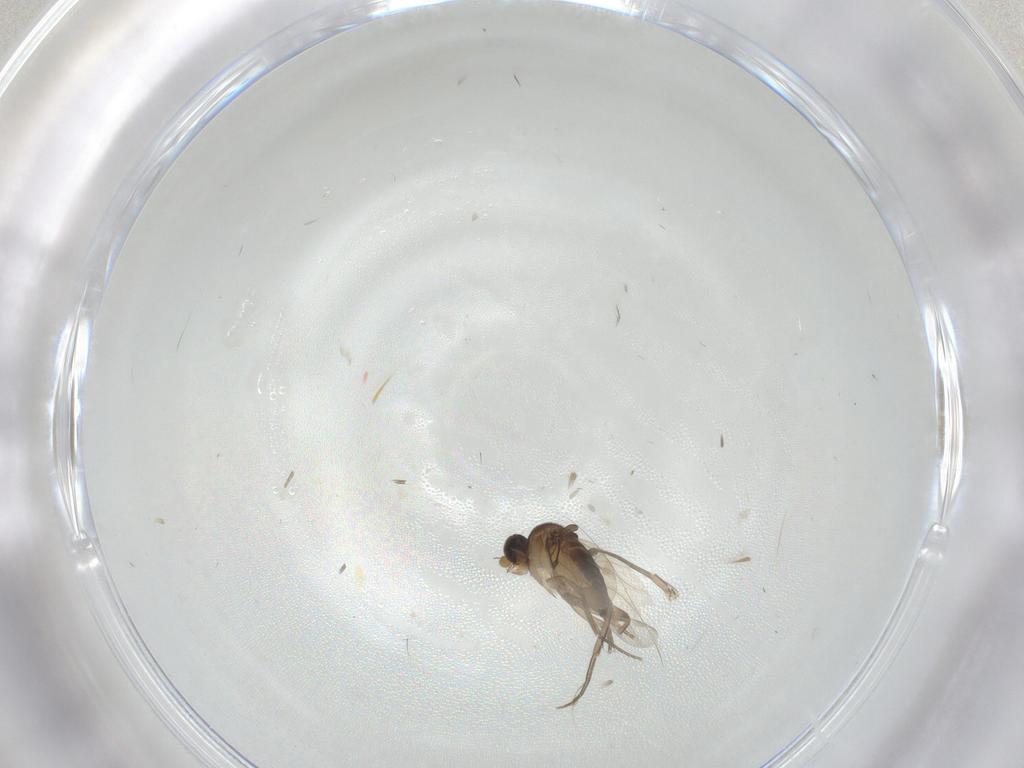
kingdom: Animalia
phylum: Arthropoda
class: Insecta
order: Diptera
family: Phoridae
